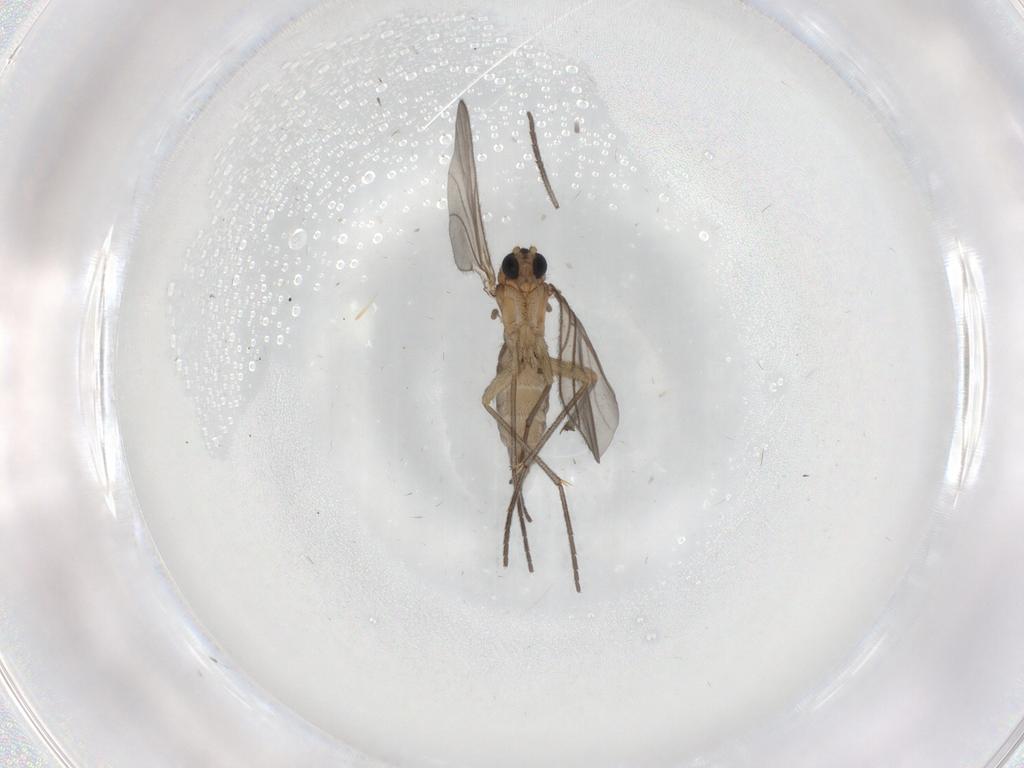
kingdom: Animalia
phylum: Arthropoda
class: Insecta
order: Diptera
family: Sciaridae
